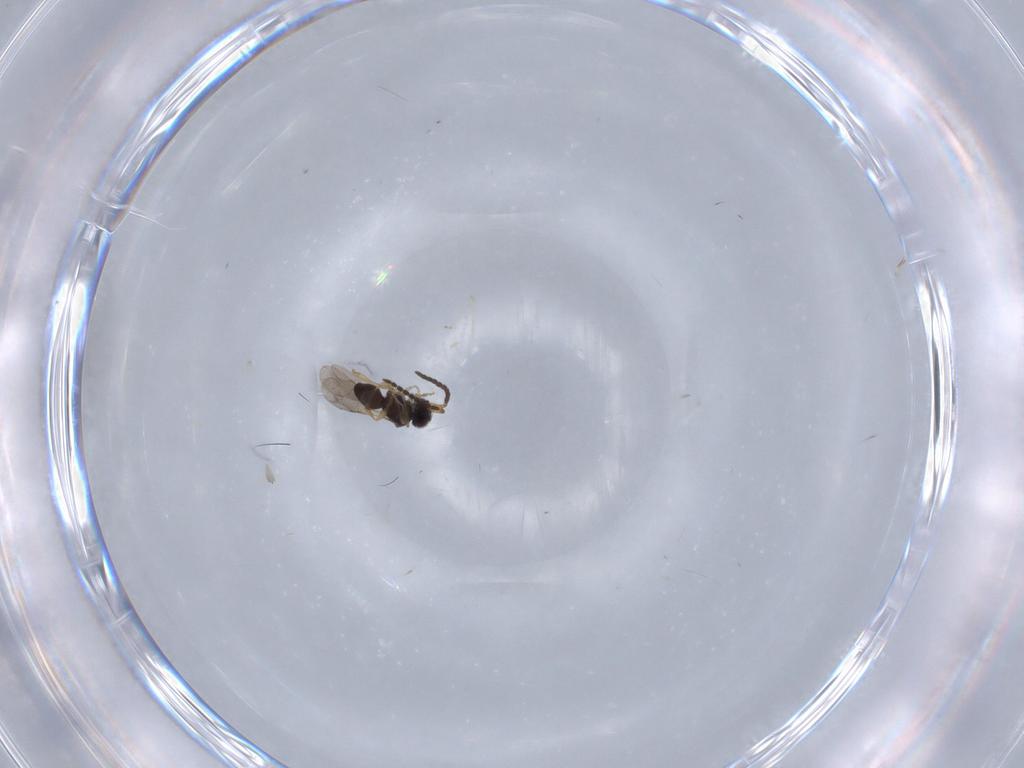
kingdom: Animalia
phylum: Arthropoda
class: Insecta
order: Hymenoptera
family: Ceraphronidae
